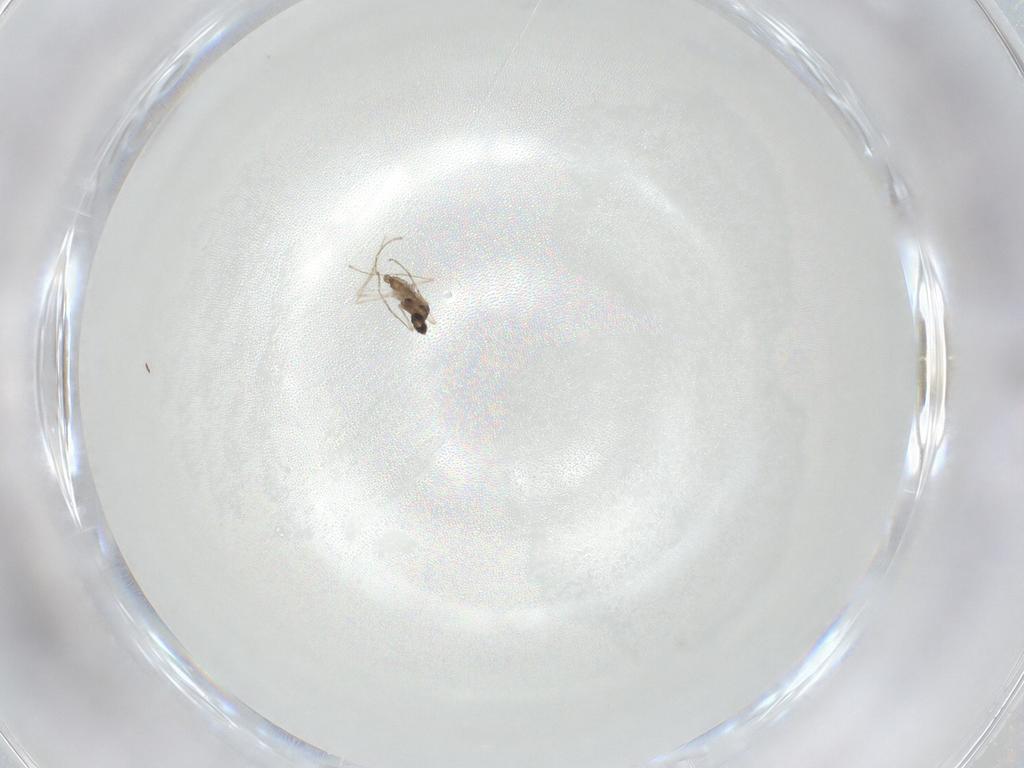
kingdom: Animalia
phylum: Arthropoda
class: Insecta
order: Diptera
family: Cecidomyiidae
